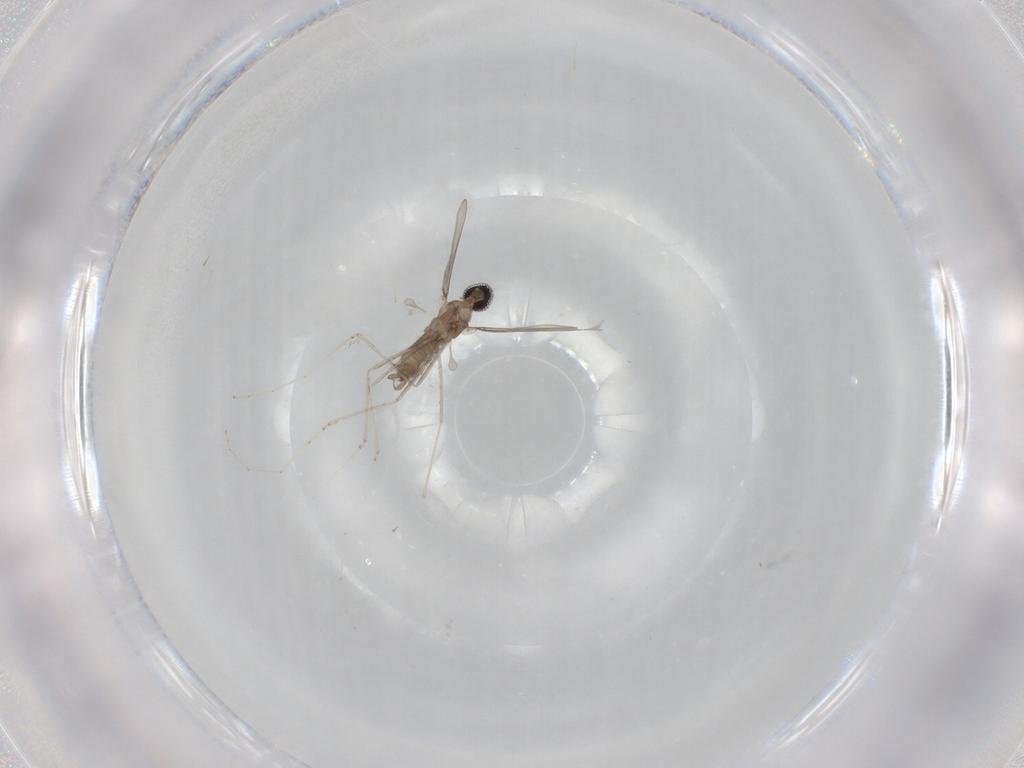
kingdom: Animalia
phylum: Arthropoda
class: Insecta
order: Diptera
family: Cecidomyiidae
